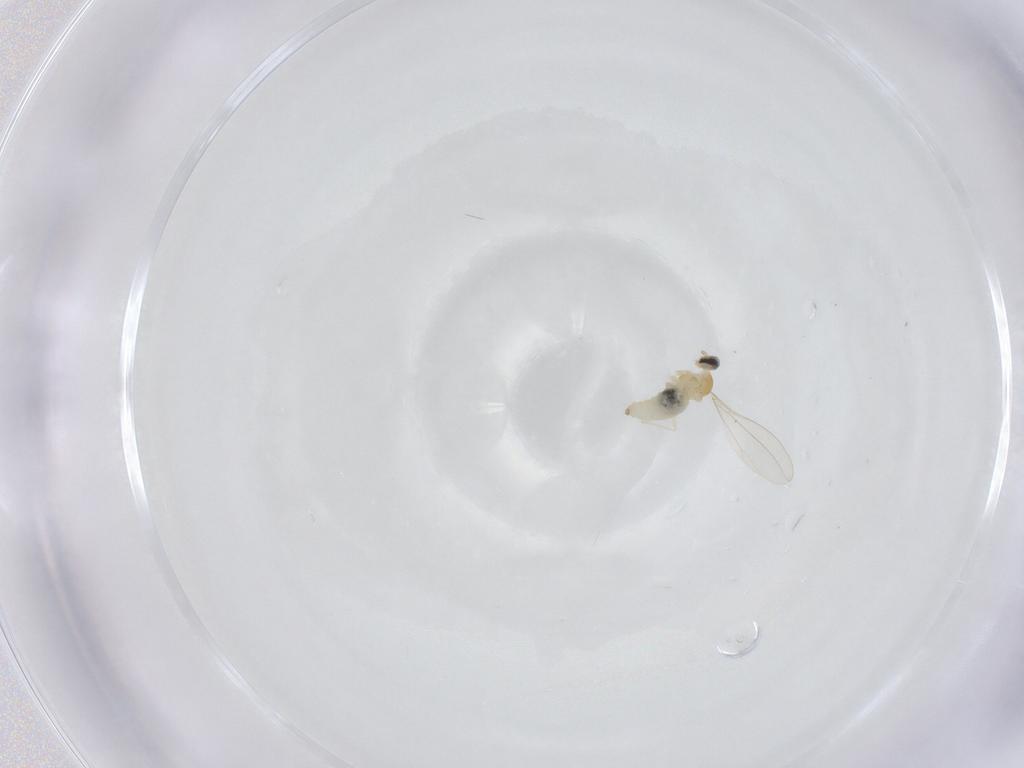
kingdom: Animalia
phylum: Arthropoda
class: Insecta
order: Diptera
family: Cecidomyiidae
